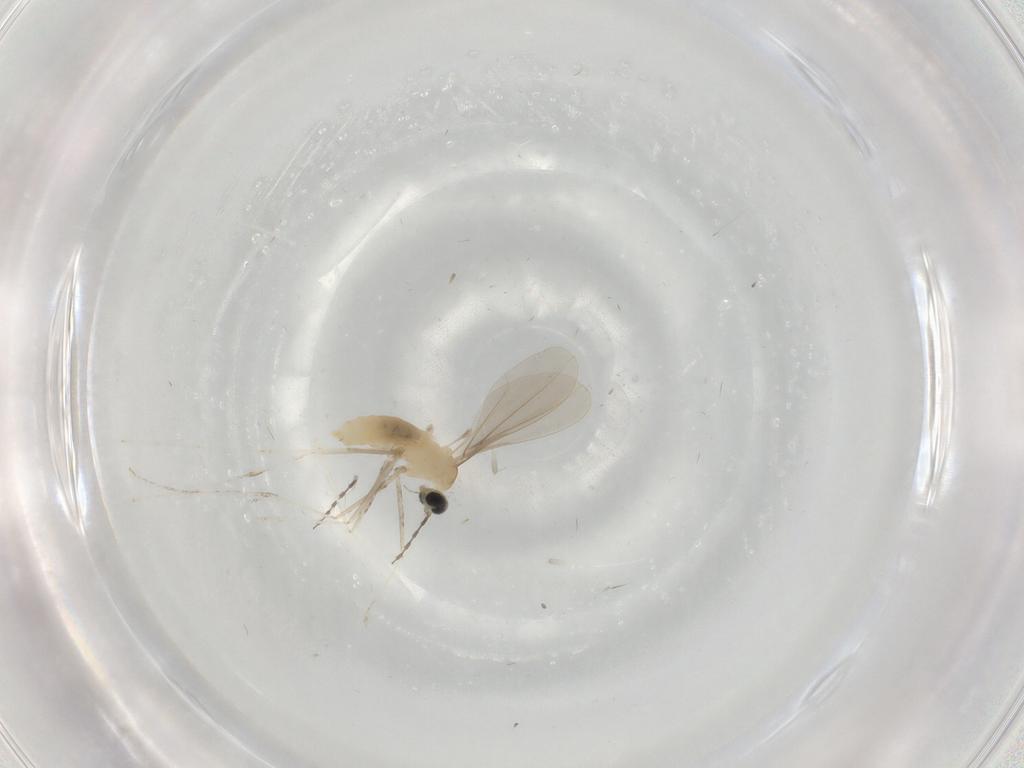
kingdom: Animalia
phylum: Arthropoda
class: Insecta
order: Diptera
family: Cecidomyiidae
